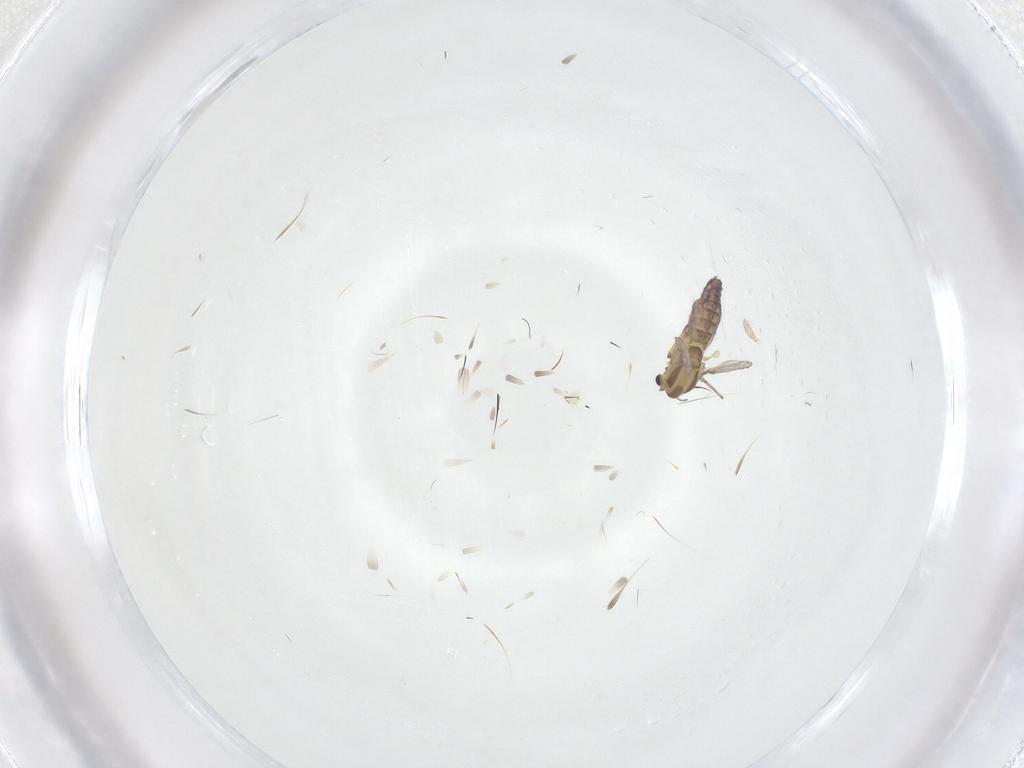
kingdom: Animalia
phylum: Arthropoda
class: Insecta
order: Diptera
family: Chironomidae
